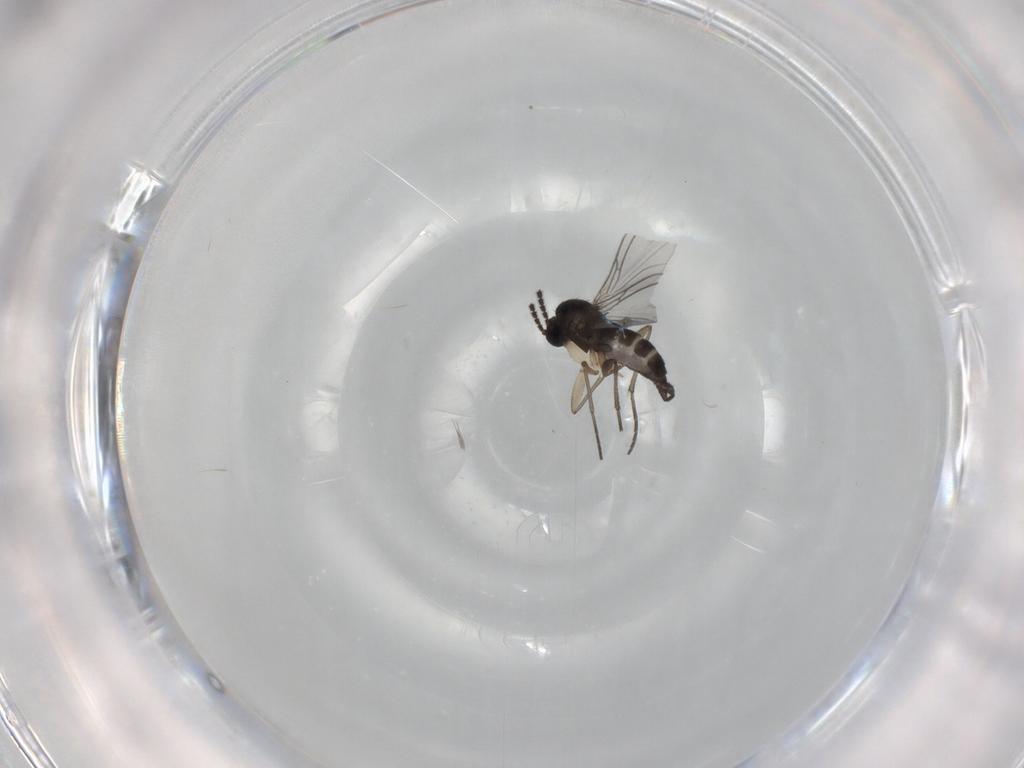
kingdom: Animalia
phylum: Arthropoda
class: Insecta
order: Diptera
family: Sciaridae
